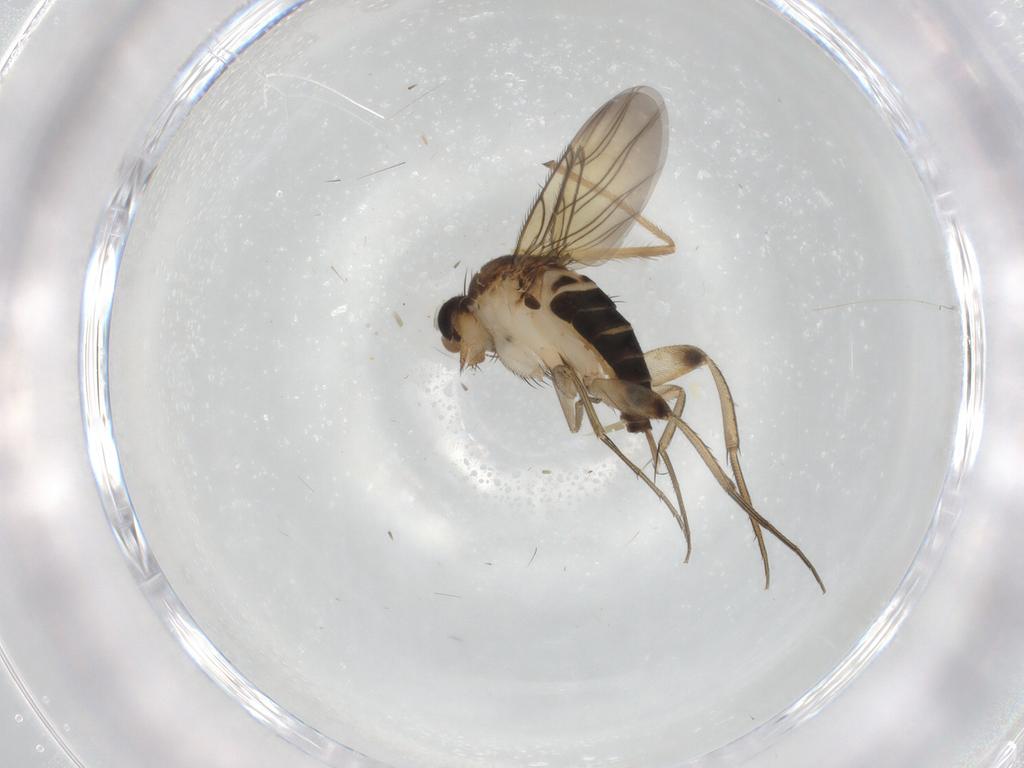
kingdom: Animalia
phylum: Arthropoda
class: Insecta
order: Diptera
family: Phoridae
